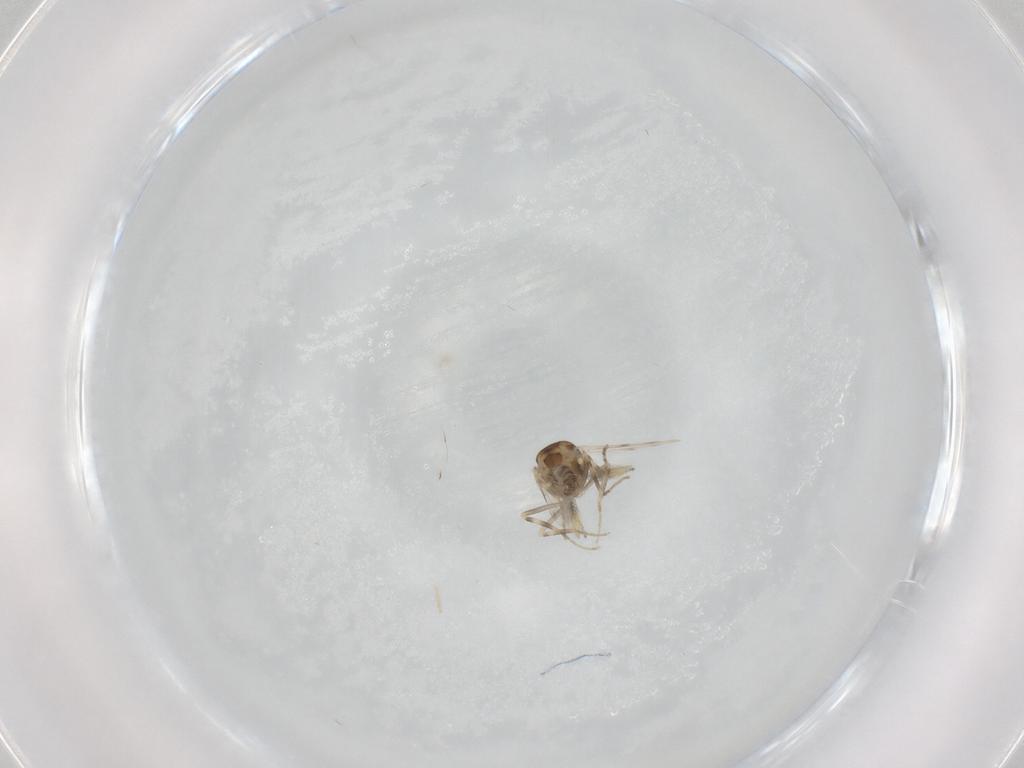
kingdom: Animalia
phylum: Arthropoda
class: Insecta
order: Diptera
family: Ceratopogonidae
